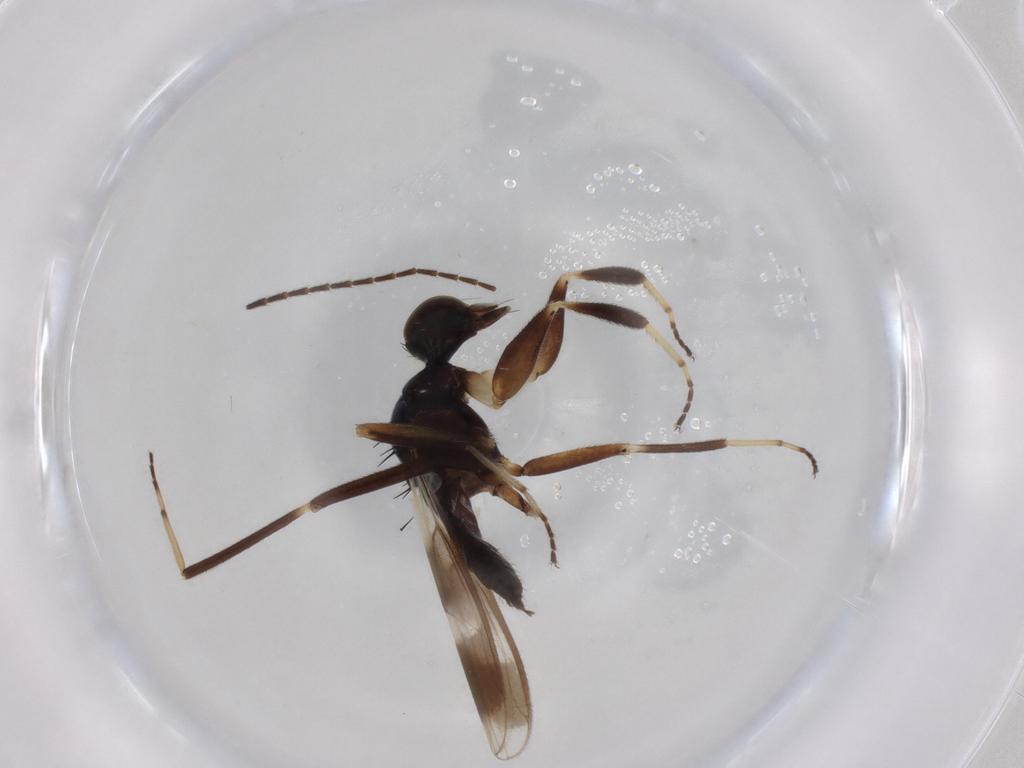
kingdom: Animalia
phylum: Arthropoda
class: Insecta
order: Diptera
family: Hybotidae
